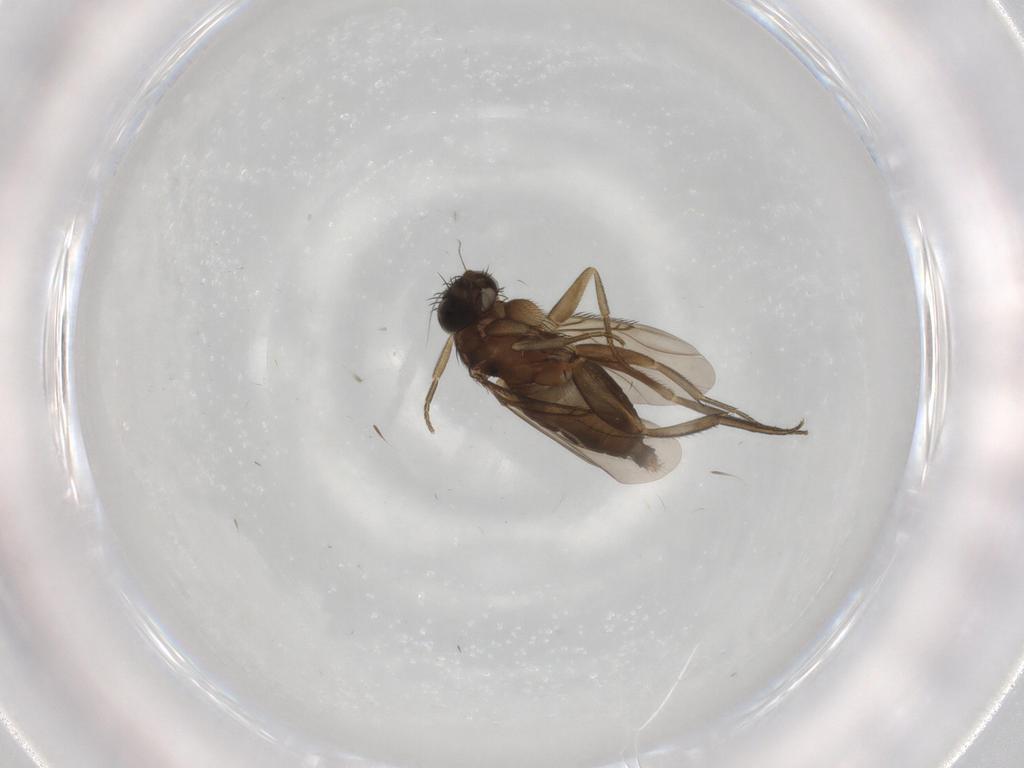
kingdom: Animalia
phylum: Arthropoda
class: Insecta
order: Diptera
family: Phoridae
